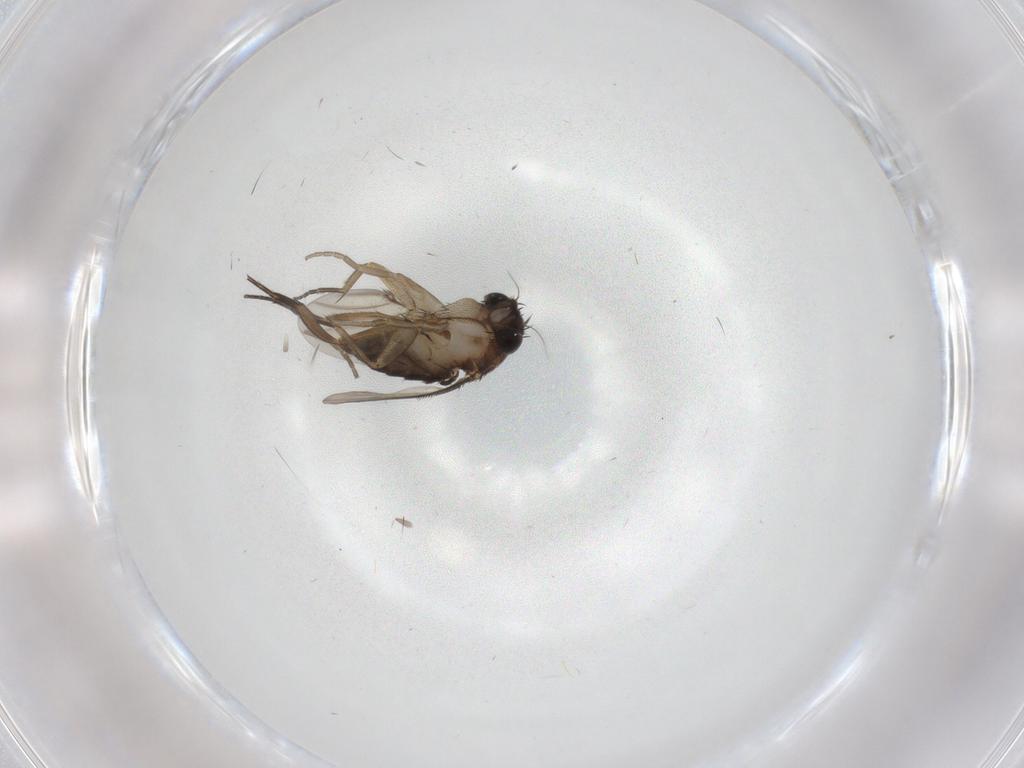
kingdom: Animalia
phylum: Arthropoda
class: Insecta
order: Diptera
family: Phoridae
